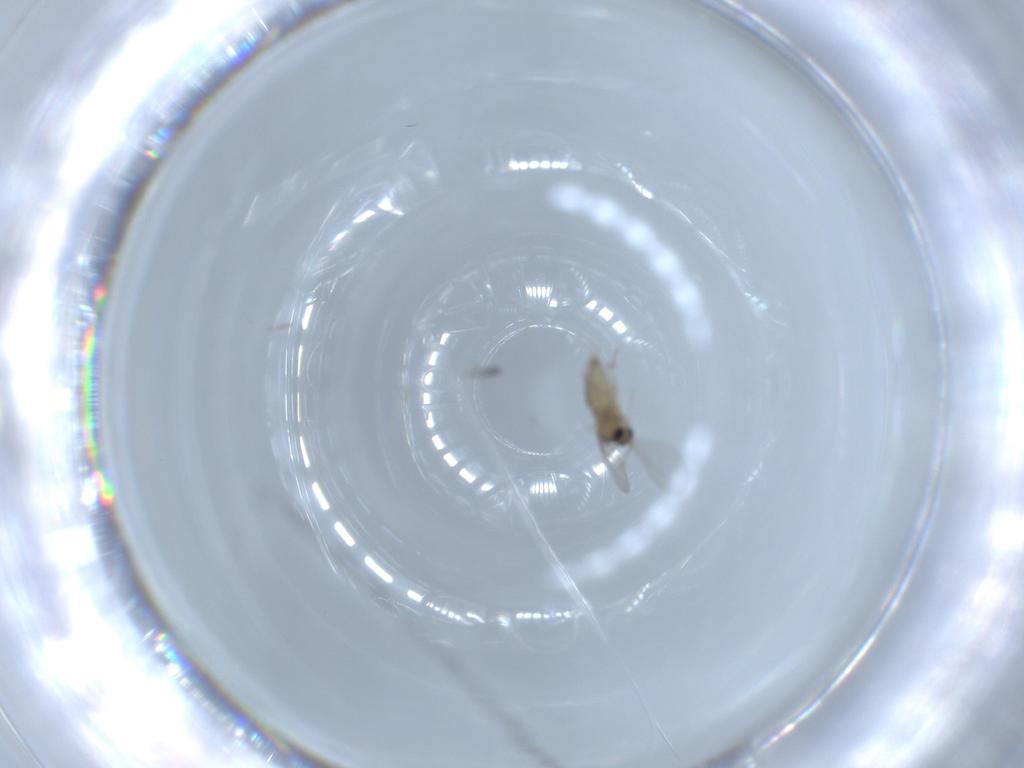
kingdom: Animalia
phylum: Arthropoda
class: Insecta
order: Diptera
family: Cecidomyiidae
